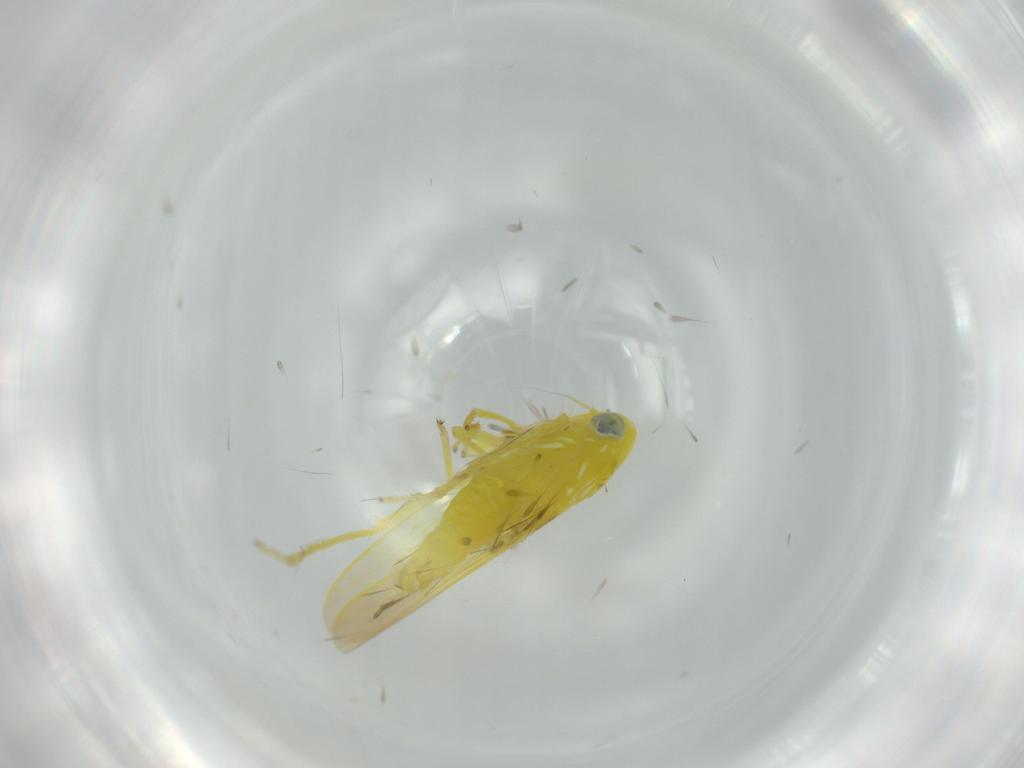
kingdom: Animalia
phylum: Arthropoda
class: Insecta
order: Hemiptera
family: Cicadellidae
